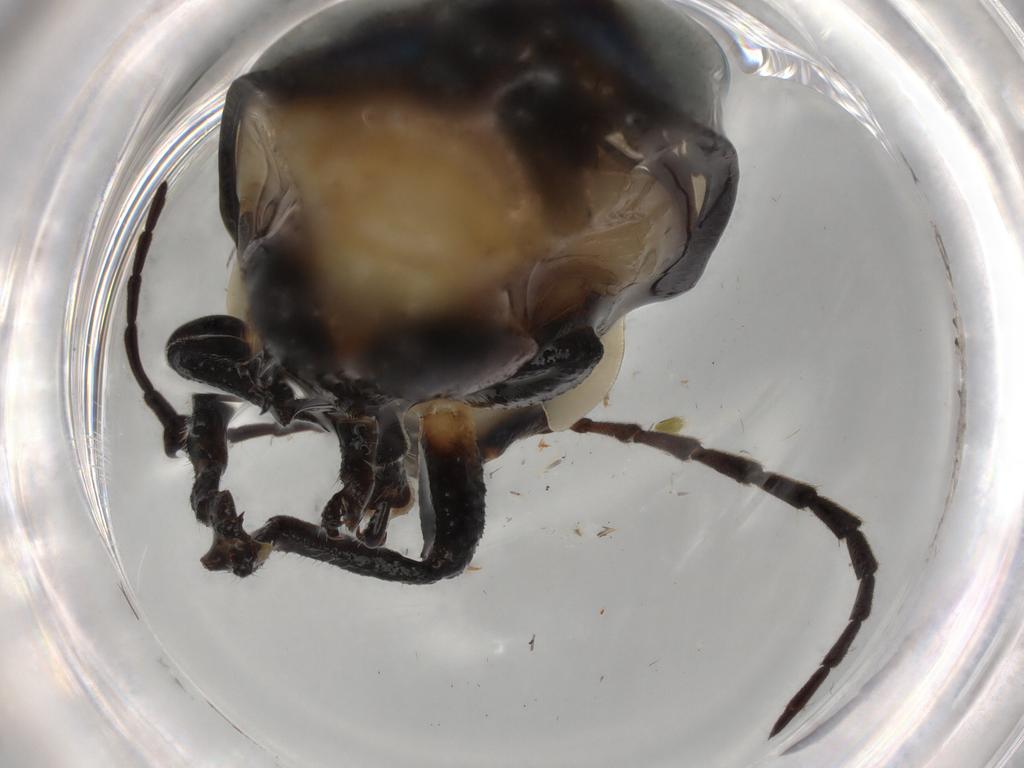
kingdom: Animalia
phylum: Arthropoda
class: Insecta
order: Coleoptera
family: Chrysomelidae
